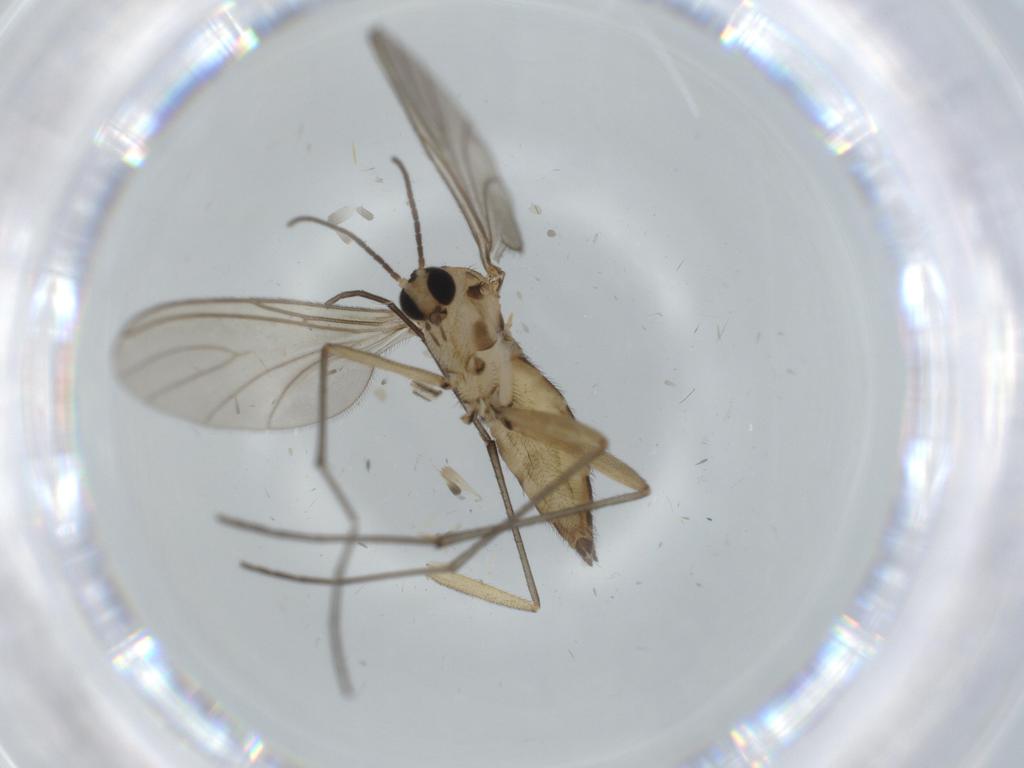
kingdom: Animalia
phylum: Arthropoda
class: Insecta
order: Diptera
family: Sciaridae
